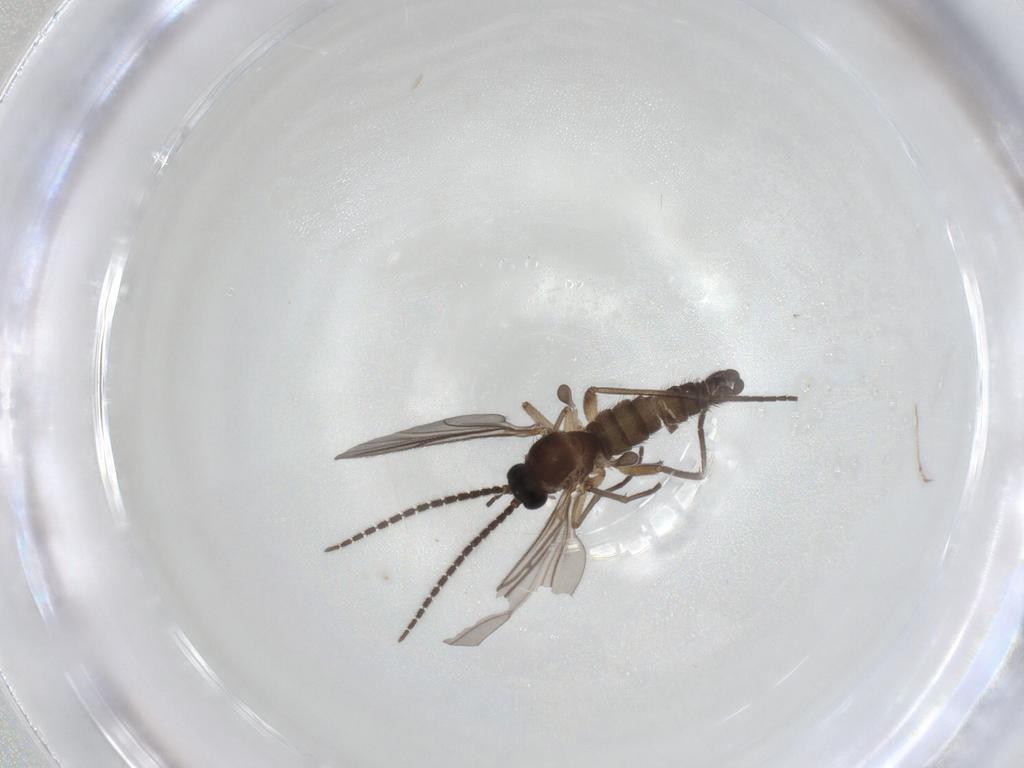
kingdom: Animalia
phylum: Arthropoda
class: Insecta
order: Diptera
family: Sciaridae
